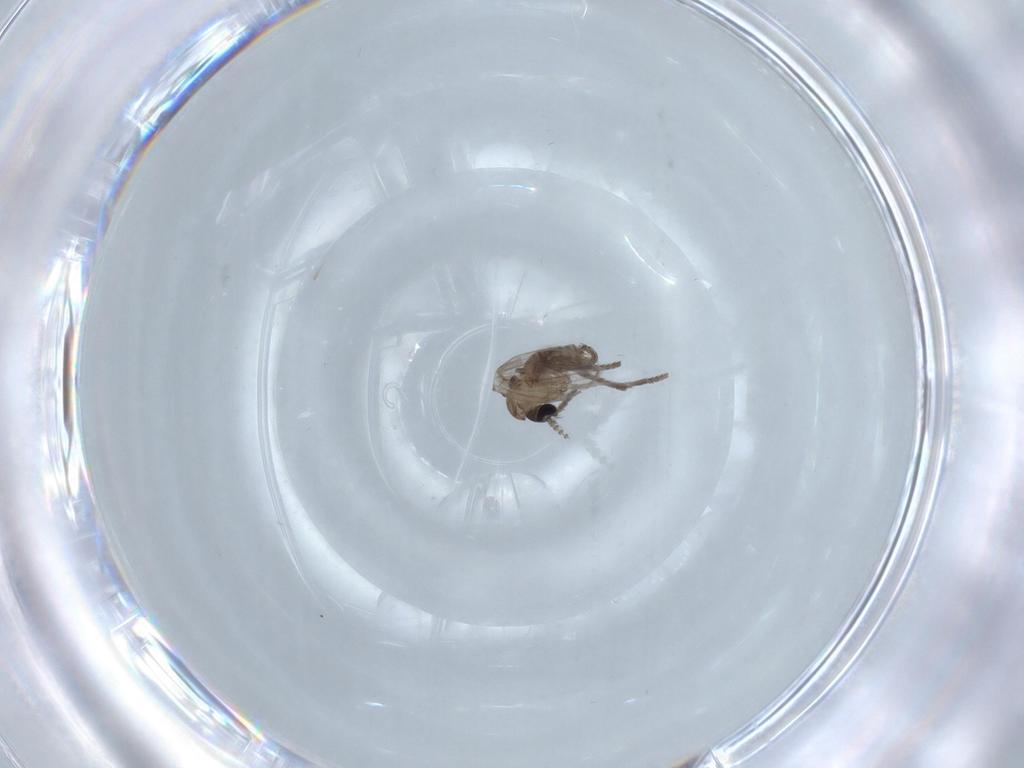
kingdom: Animalia
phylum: Arthropoda
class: Insecta
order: Diptera
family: Psychodidae
